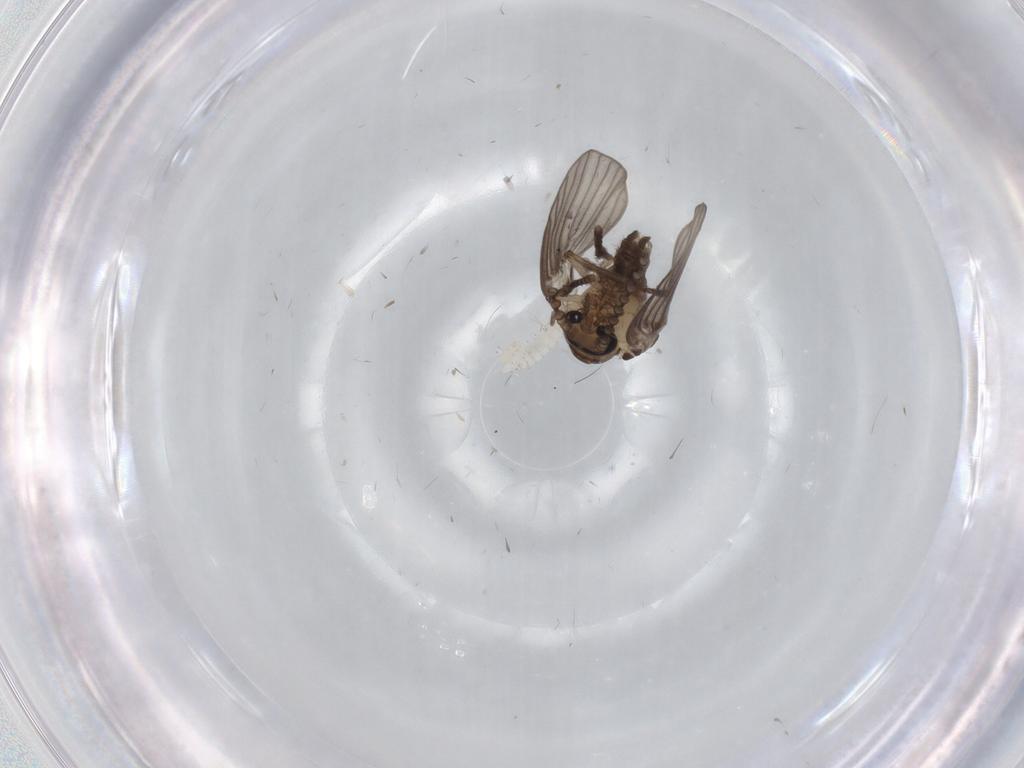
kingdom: Animalia
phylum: Arthropoda
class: Insecta
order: Diptera
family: Psychodidae
